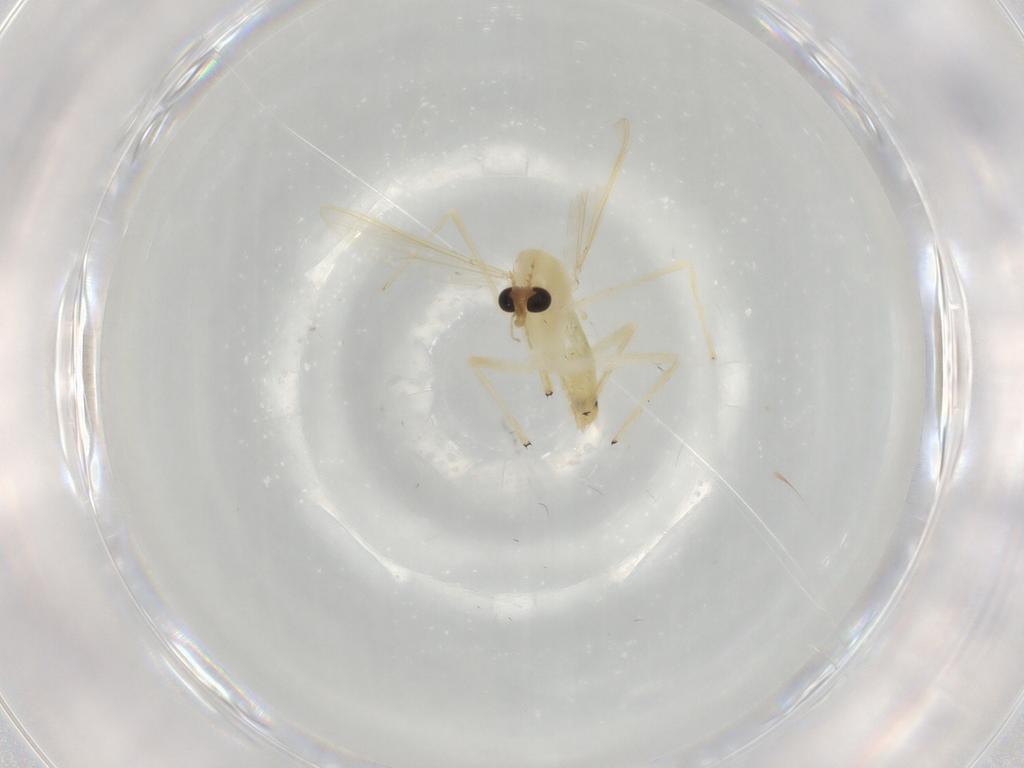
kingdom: Animalia
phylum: Arthropoda
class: Insecta
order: Diptera
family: Chironomidae
